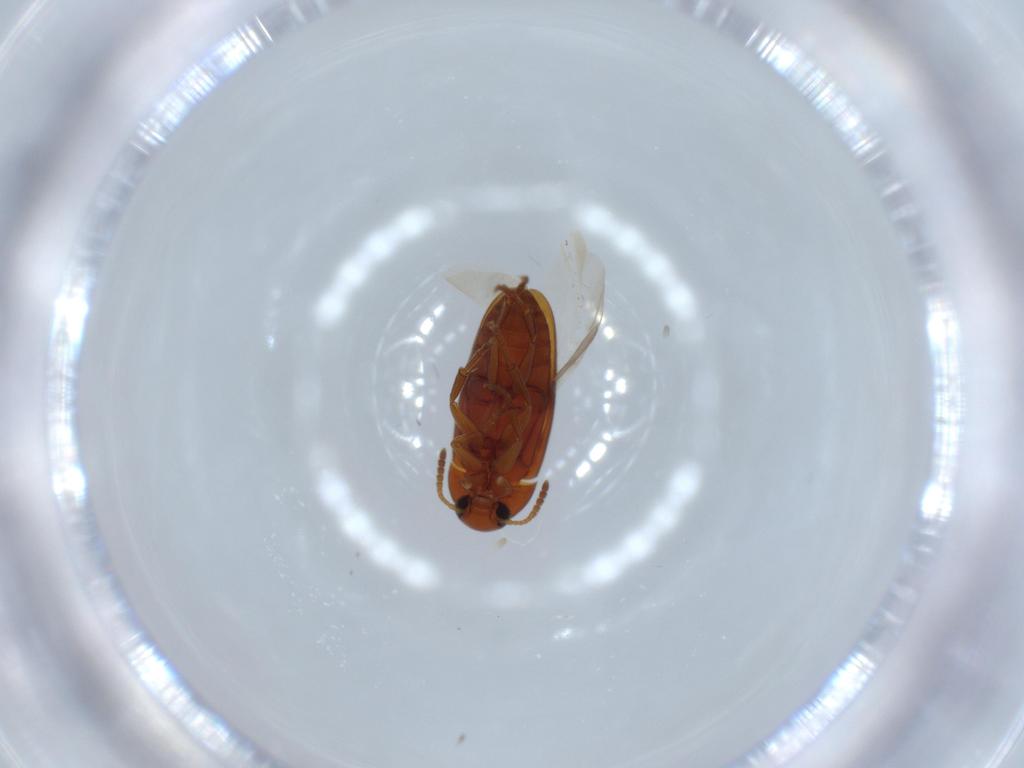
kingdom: Animalia
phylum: Arthropoda
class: Insecta
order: Coleoptera
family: Scraptiidae
